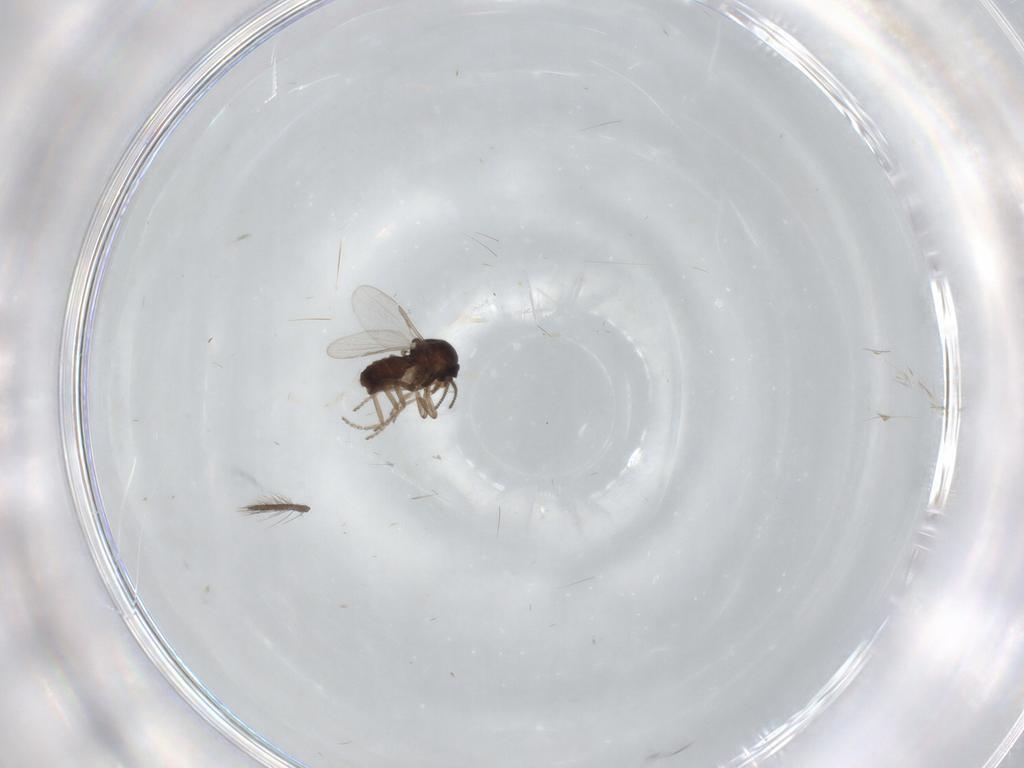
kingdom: Animalia
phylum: Arthropoda
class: Insecta
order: Diptera
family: Ceratopogonidae
